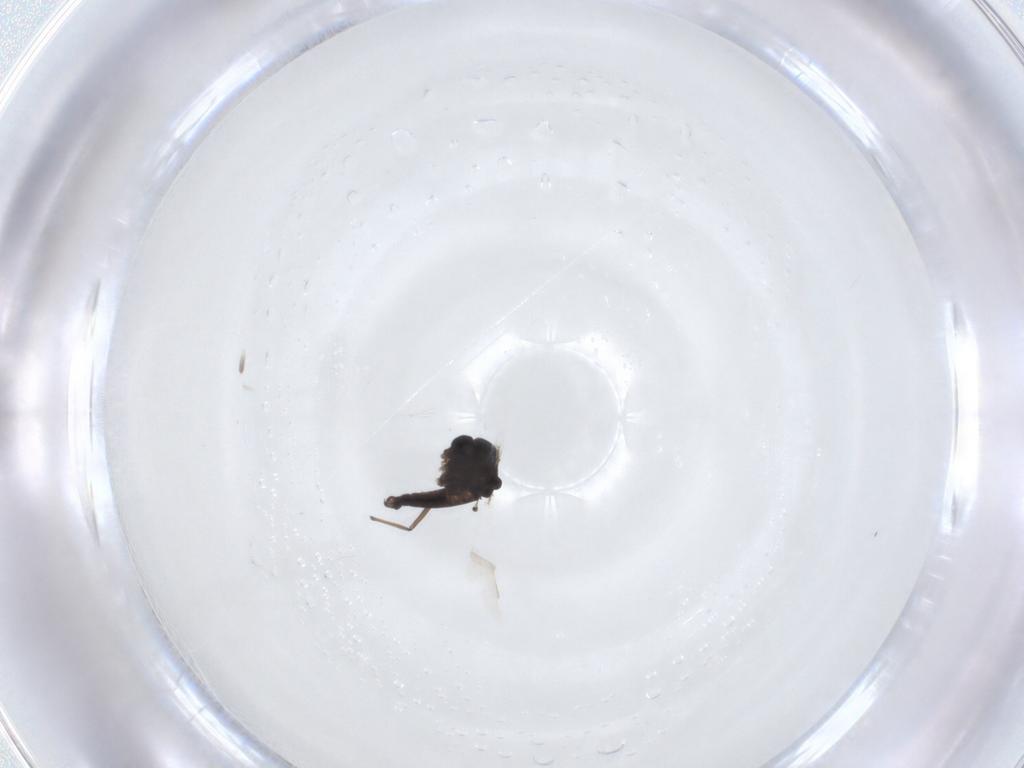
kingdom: Animalia
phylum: Arthropoda
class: Insecta
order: Diptera
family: Chironomidae
